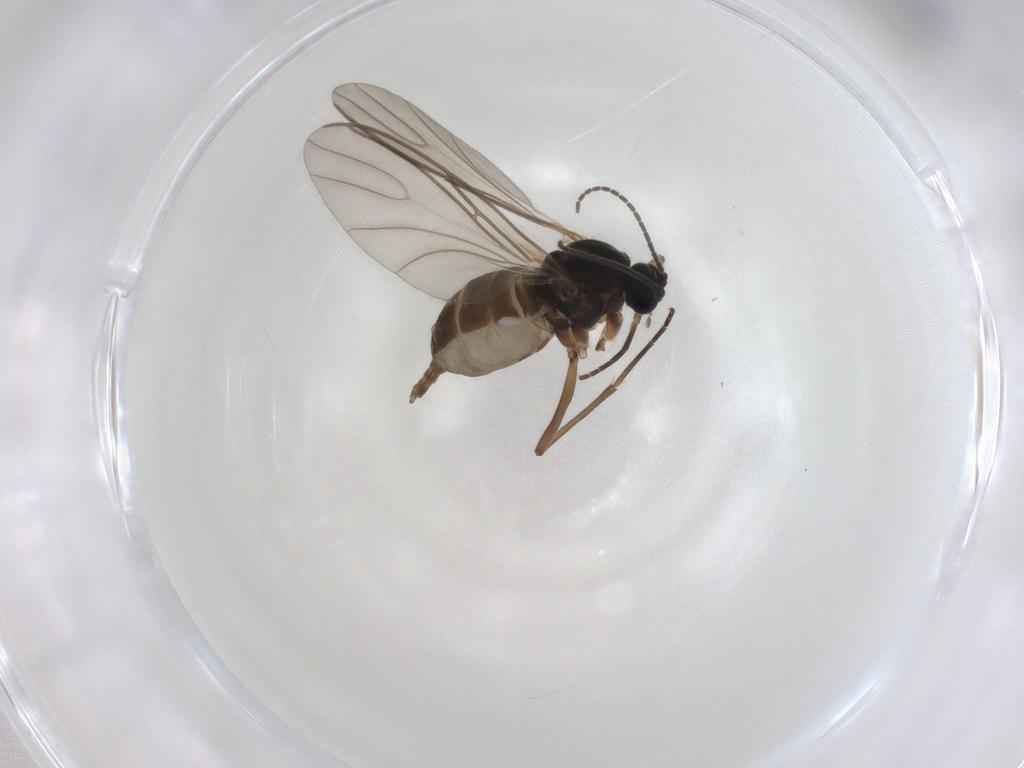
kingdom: Animalia
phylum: Arthropoda
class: Insecta
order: Diptera
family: Sciaridae
